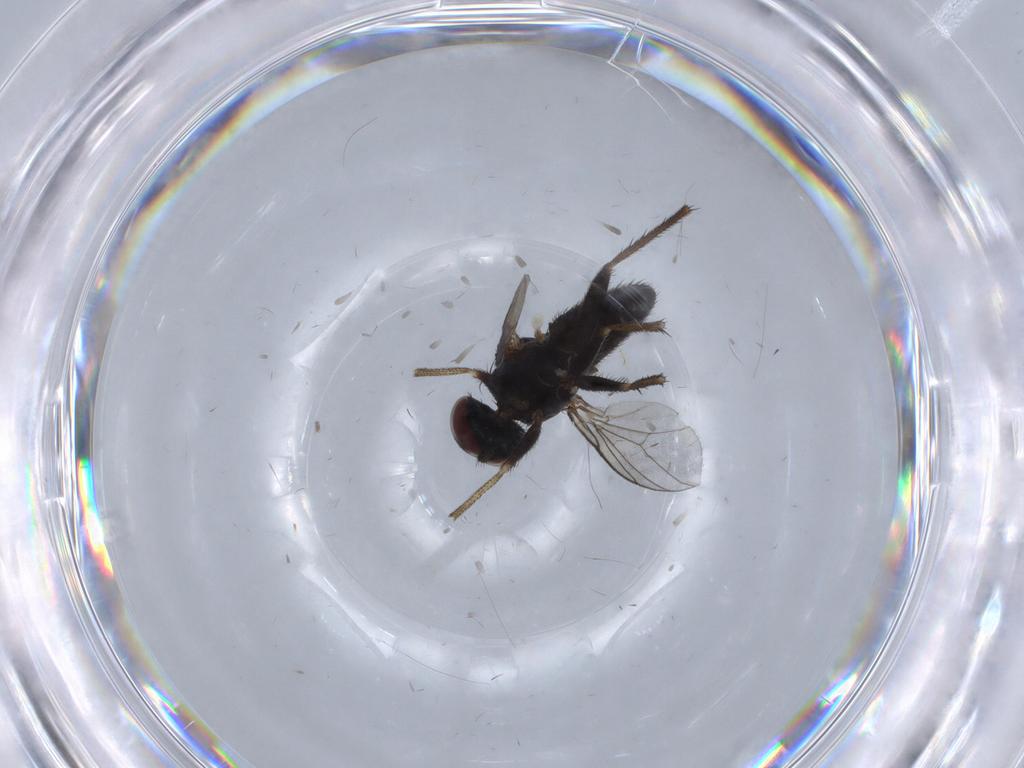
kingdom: Animalia
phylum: Arthropoda
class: Insecta
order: Diptera
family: Dolichopodidae
